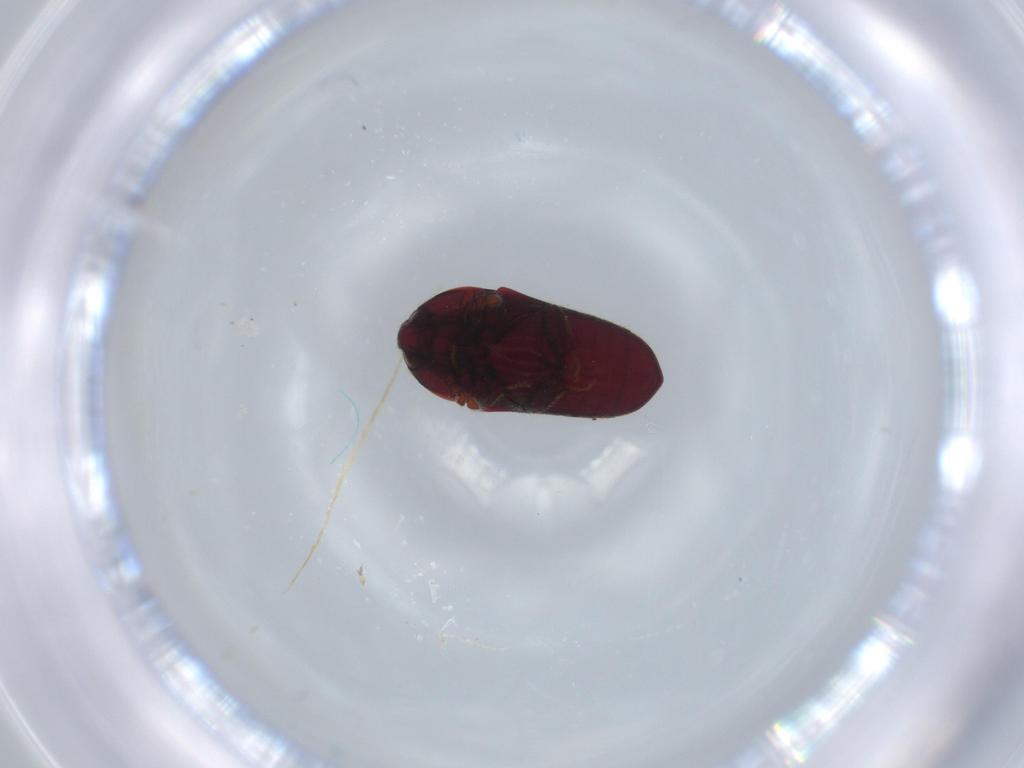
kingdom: Animalia
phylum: Arthropoda
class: Insecta
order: Coleoptera
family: Throscidae
